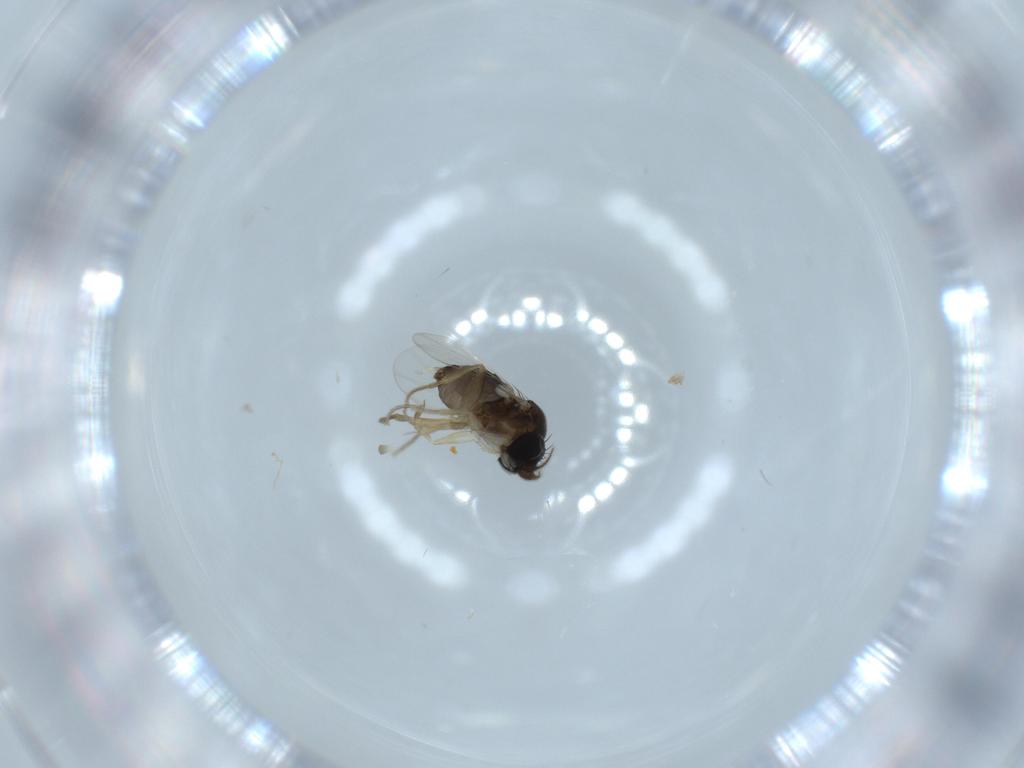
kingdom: Animalia
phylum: Arthropoda
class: Insecta
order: Diptera
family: Phoridae
